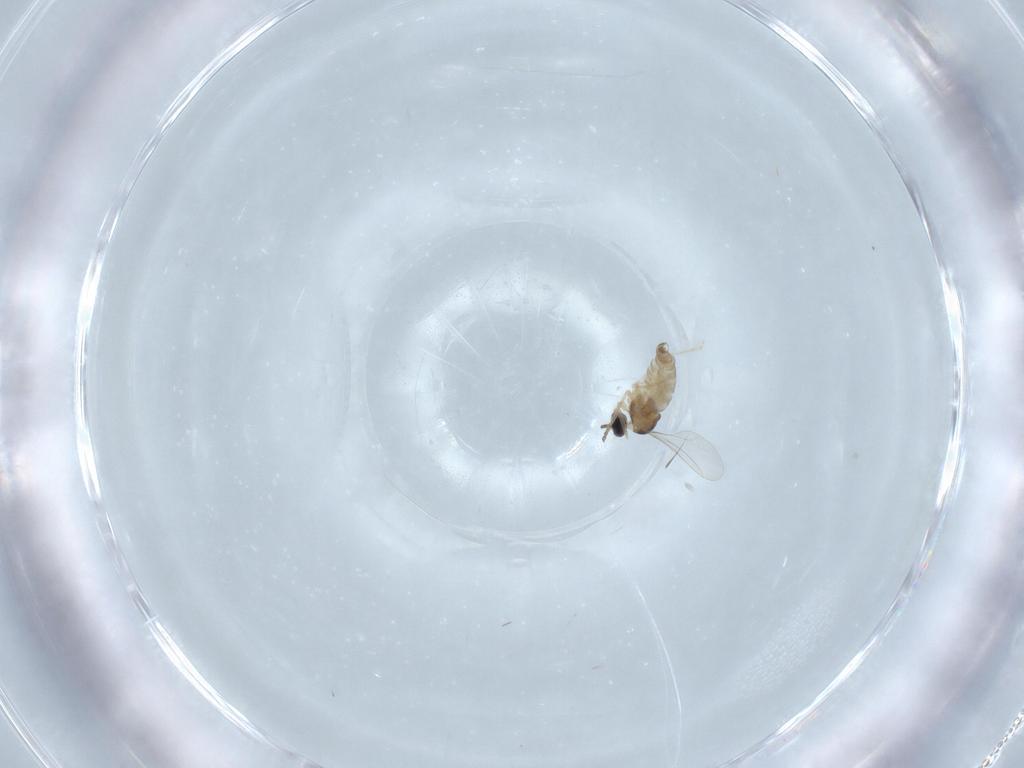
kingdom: Animalia
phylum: Arthropoda
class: Insecta
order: Diptera
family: Cecidomyiidae
